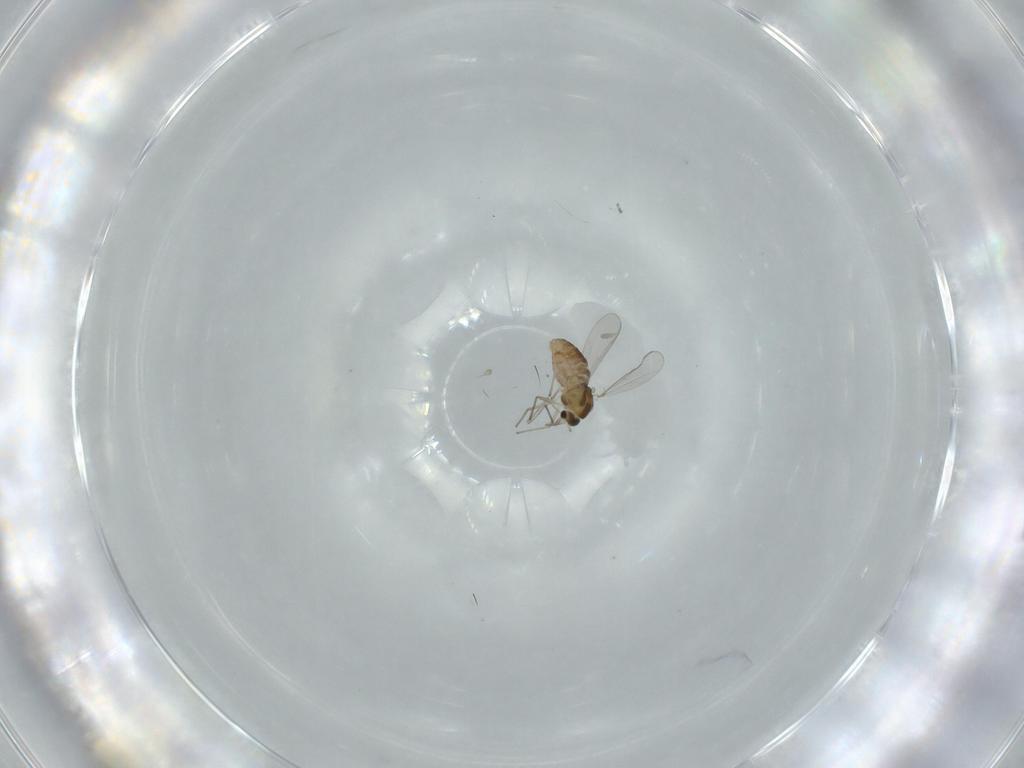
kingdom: Animalia
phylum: Arthropoda
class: Insecta
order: Diptera
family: Chironomidae
